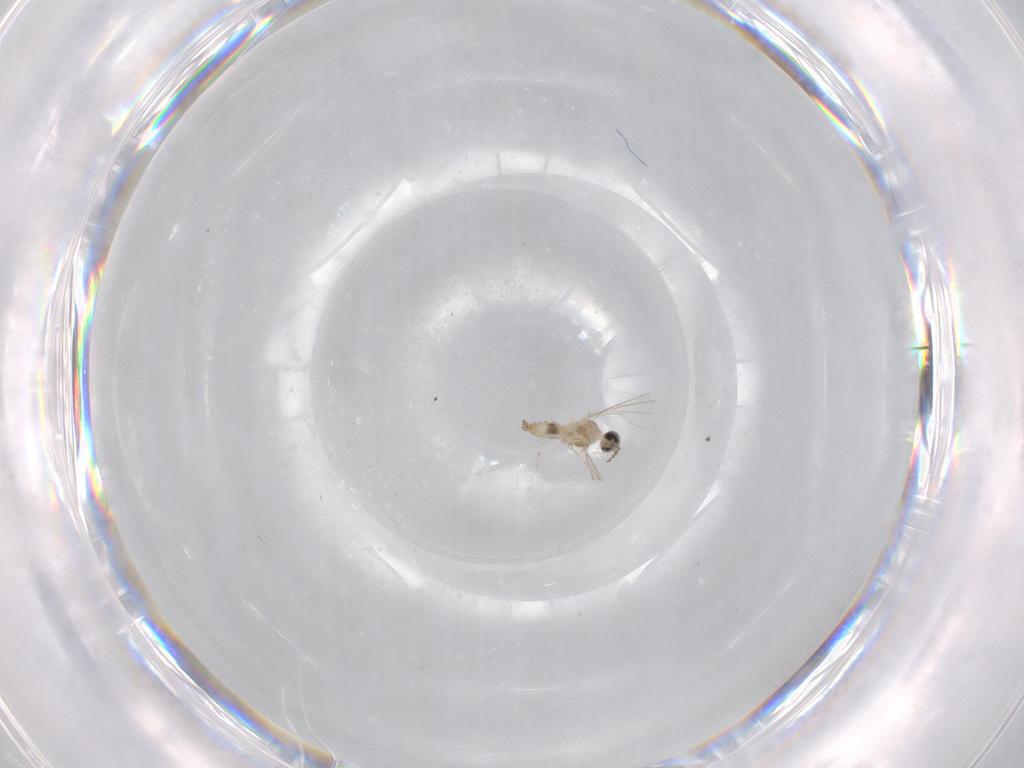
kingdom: Animalia
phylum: Arthropoda
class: Insecta
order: Diptera
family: Cecidomyiidae
